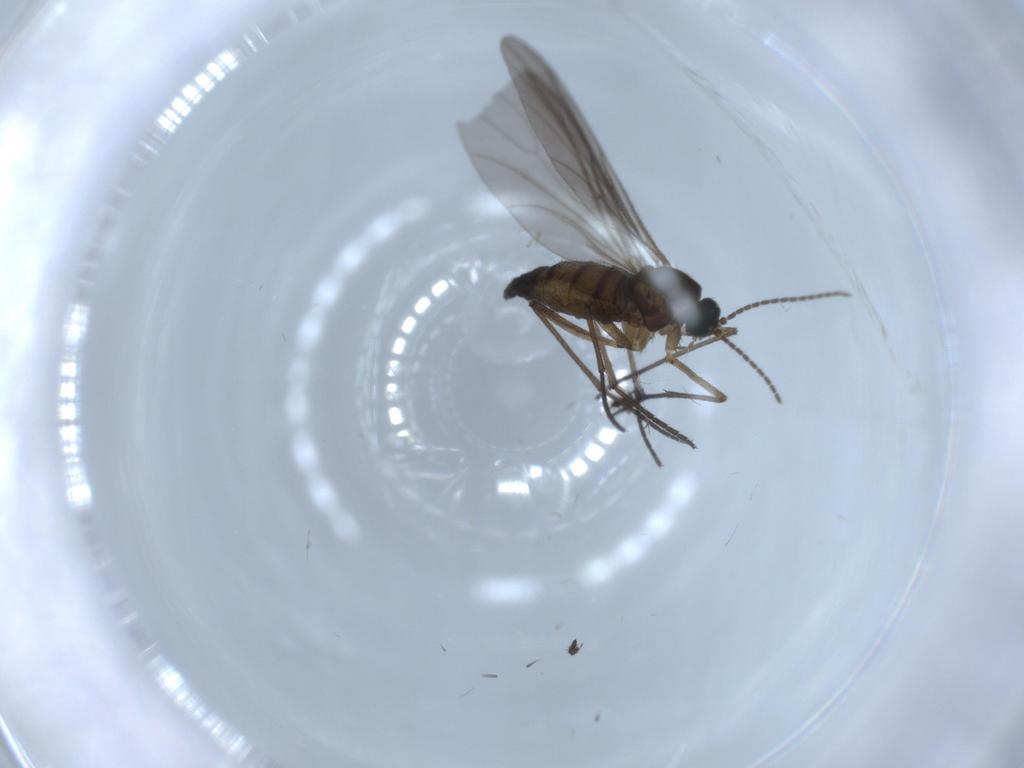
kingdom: Animalia
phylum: Arthropoda
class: Insecta
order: Diptera
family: Sciaridae
